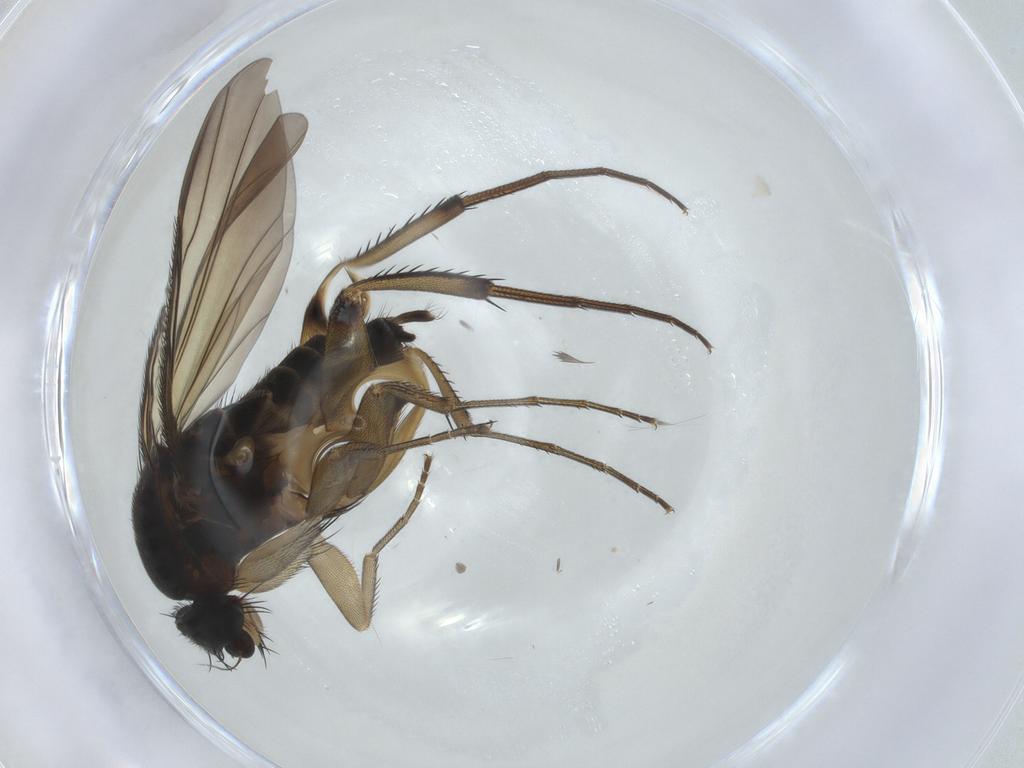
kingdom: Animalia
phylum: Arthropoda
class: Insecta
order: Diptera
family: Phoridae
